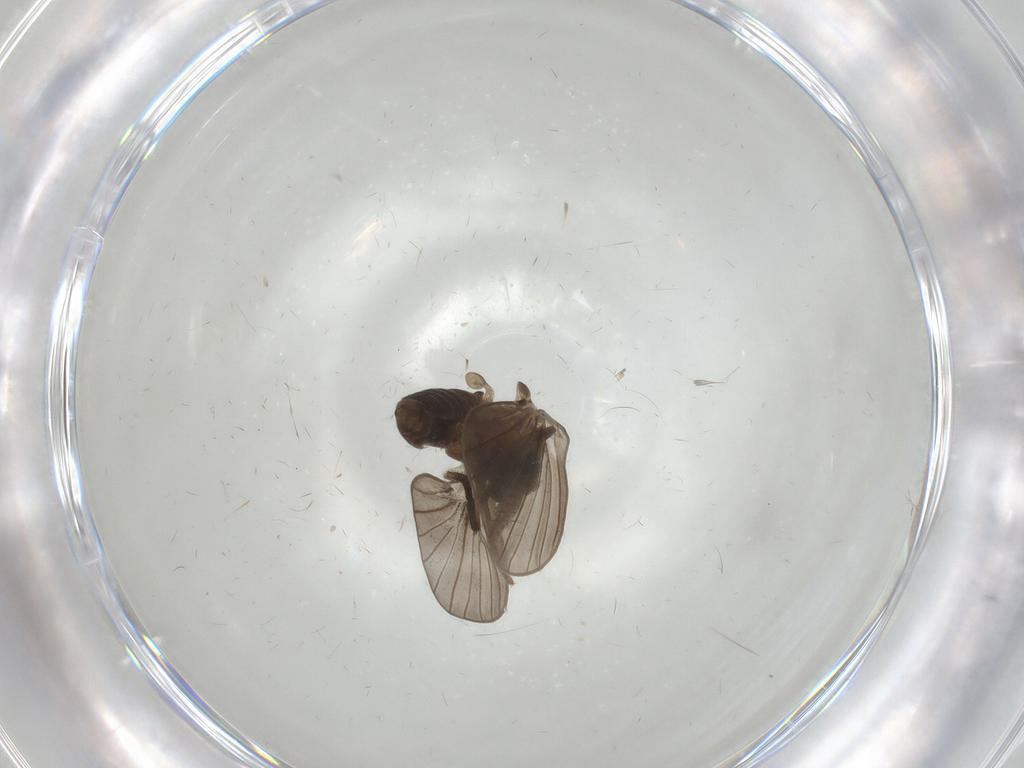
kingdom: Animalia
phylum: Arthropoda
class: Insecta
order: Diptera
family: Psychodidae
